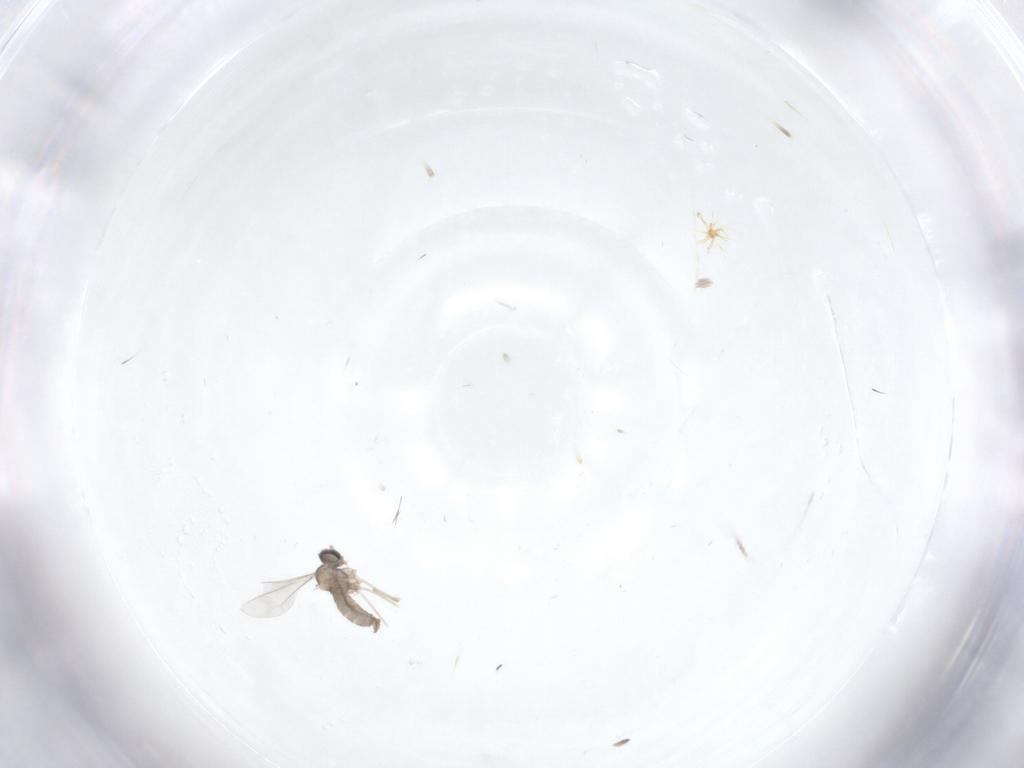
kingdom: Animalia
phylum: Arthropoda
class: Insecta
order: Diptera
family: Cecidomyiidae
